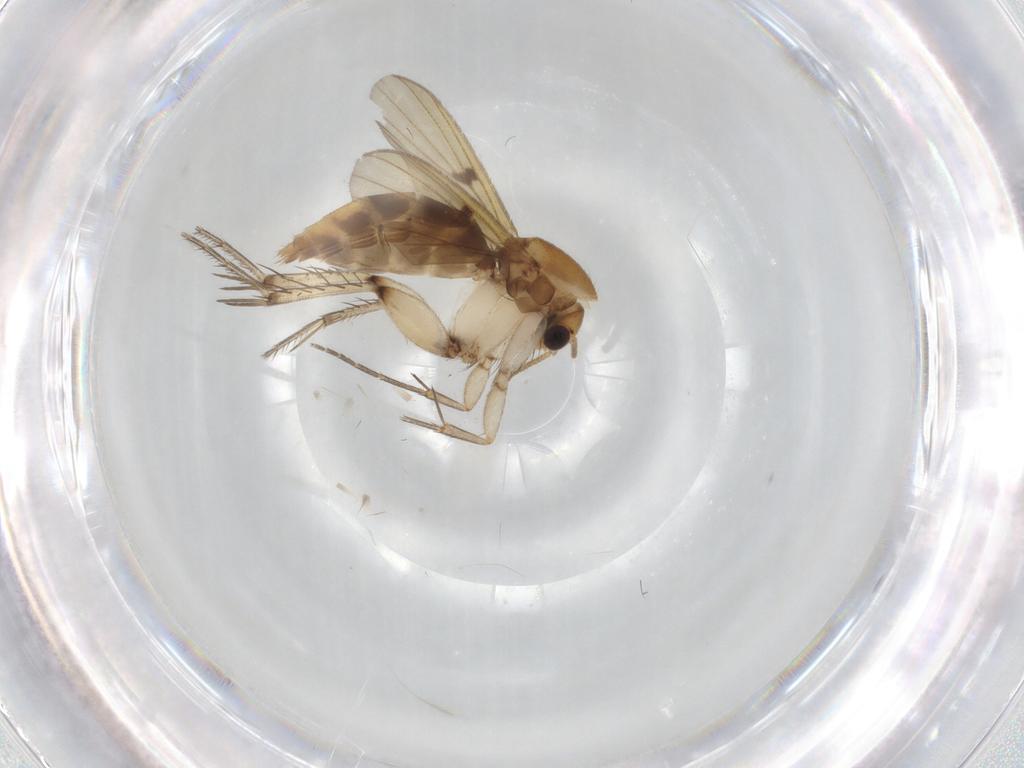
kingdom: Animalia
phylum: Arthropoda
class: Insecta
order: Diptera
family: Mycetophilidae
